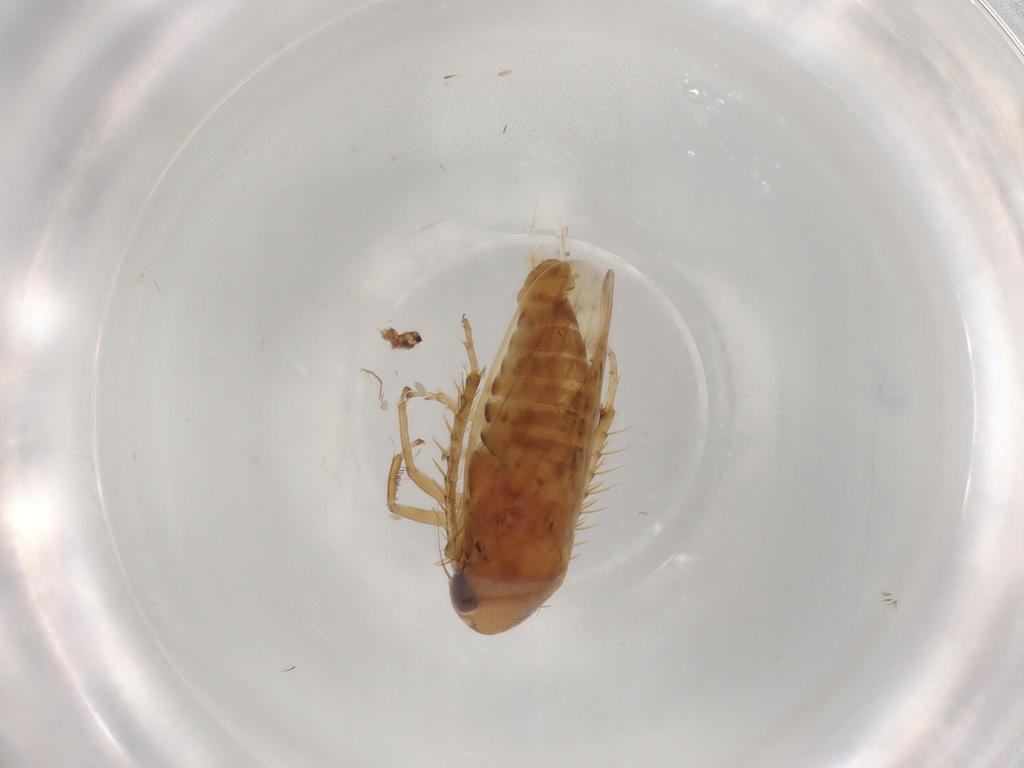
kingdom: Animalia
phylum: Arthropoda
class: Insecta
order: Hemiptera
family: Cicadellidae
